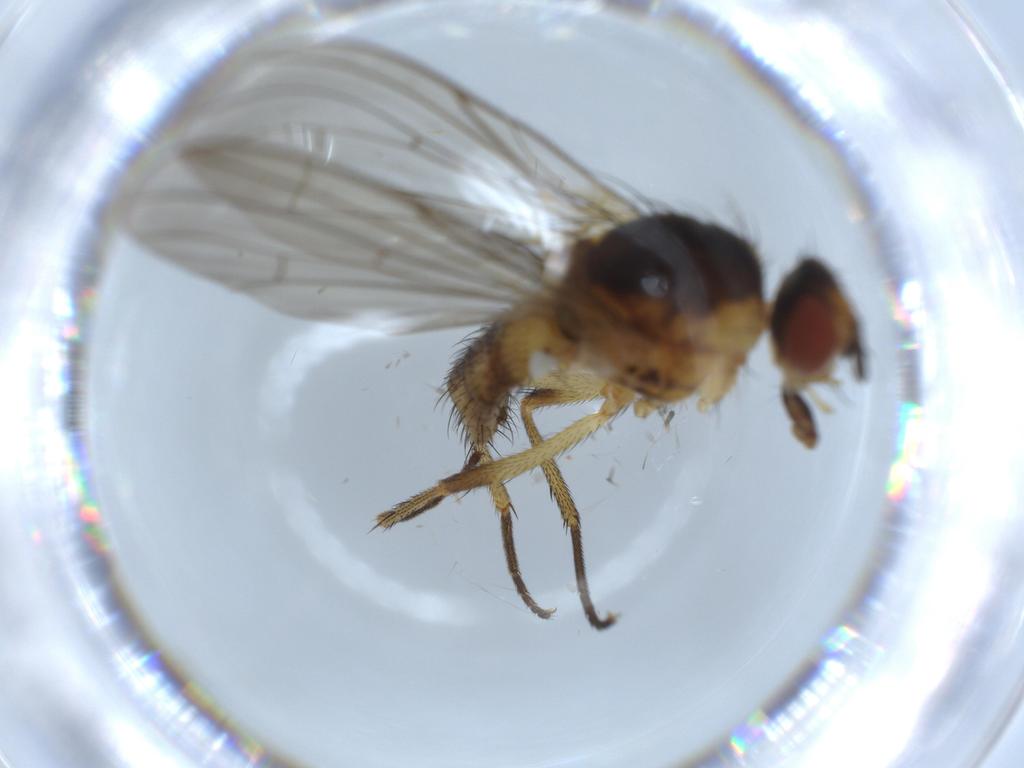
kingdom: Animalia
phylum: Arthropoda
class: Insecta
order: Diptera
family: Anthomyiidae
